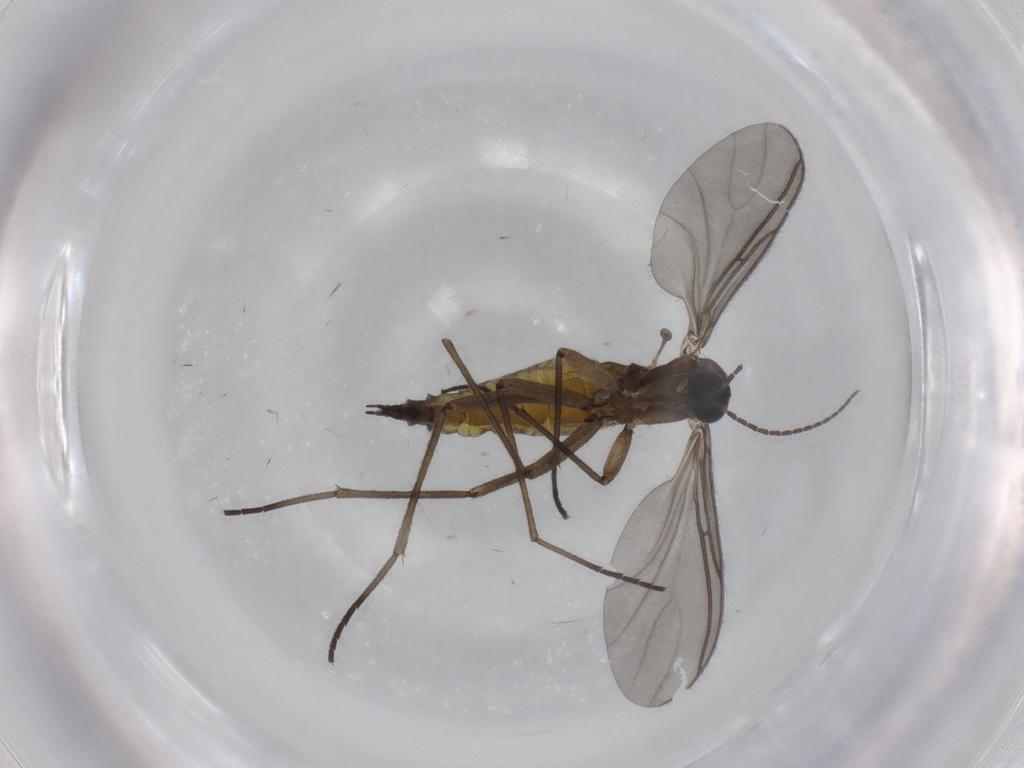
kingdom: Animalia
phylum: Arthropoda
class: Insecta
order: Diptera
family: Sciaridae
